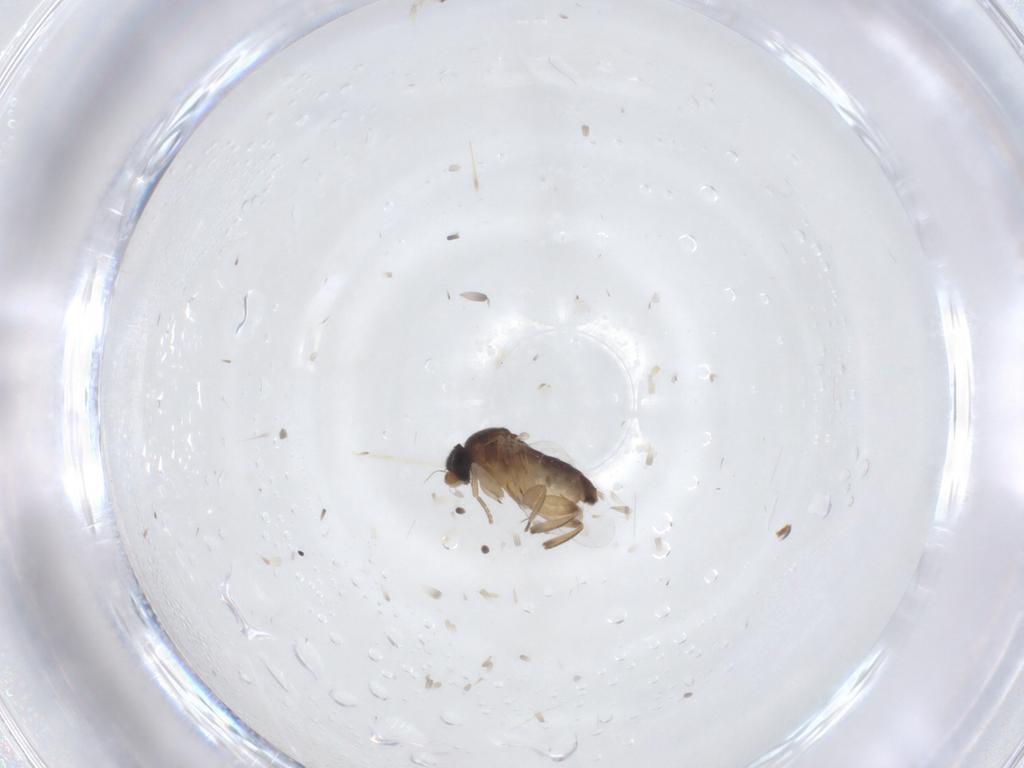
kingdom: Animalia
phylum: Arthropoda
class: Insecta
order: Diptera
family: Phoridae
